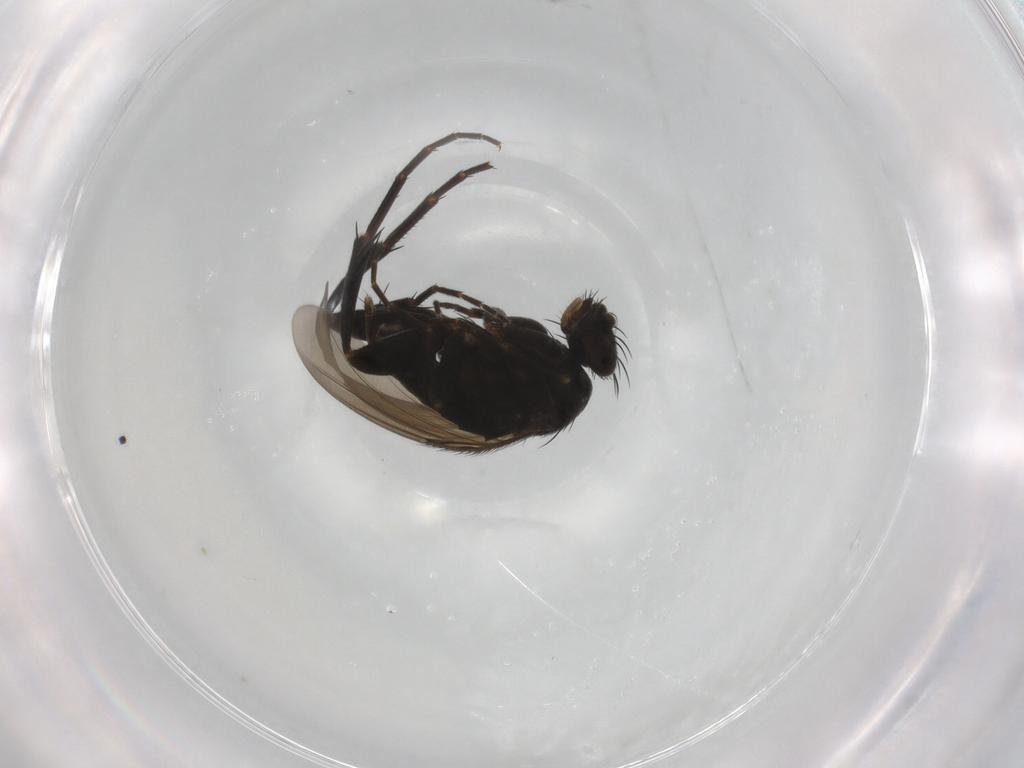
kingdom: Animalia
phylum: Arthropoda
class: Insecta
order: Diptera
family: Phoridae
